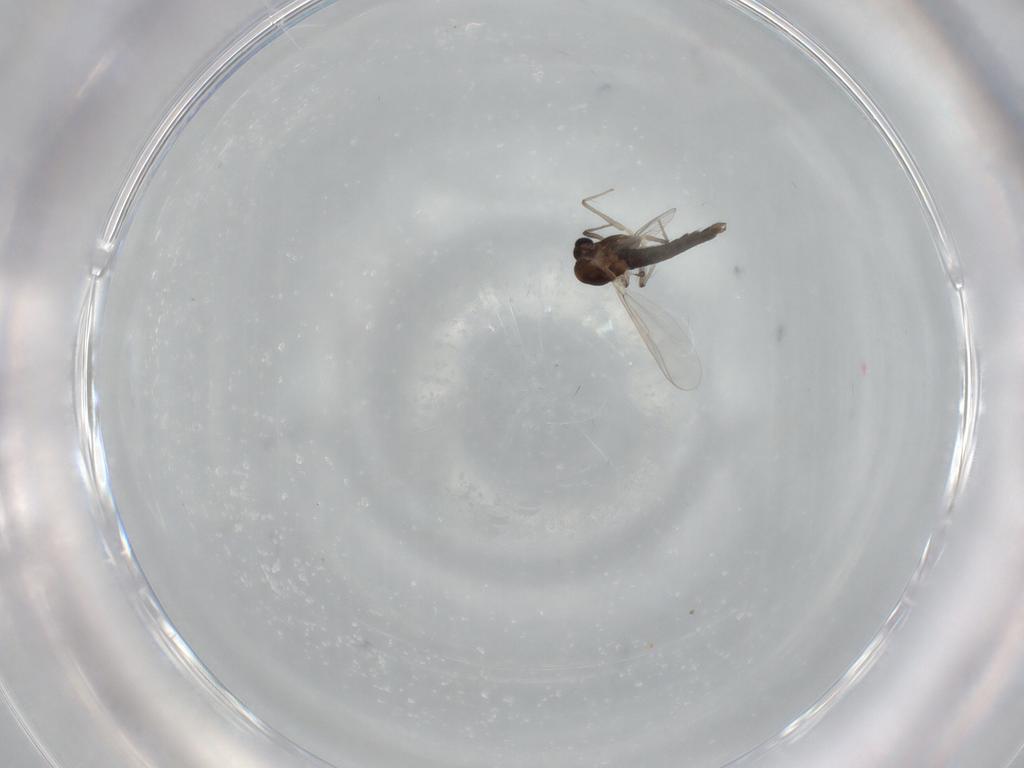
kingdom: Animalia
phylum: Arthropoda
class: Insecta
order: Diptera
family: Chironomidae
